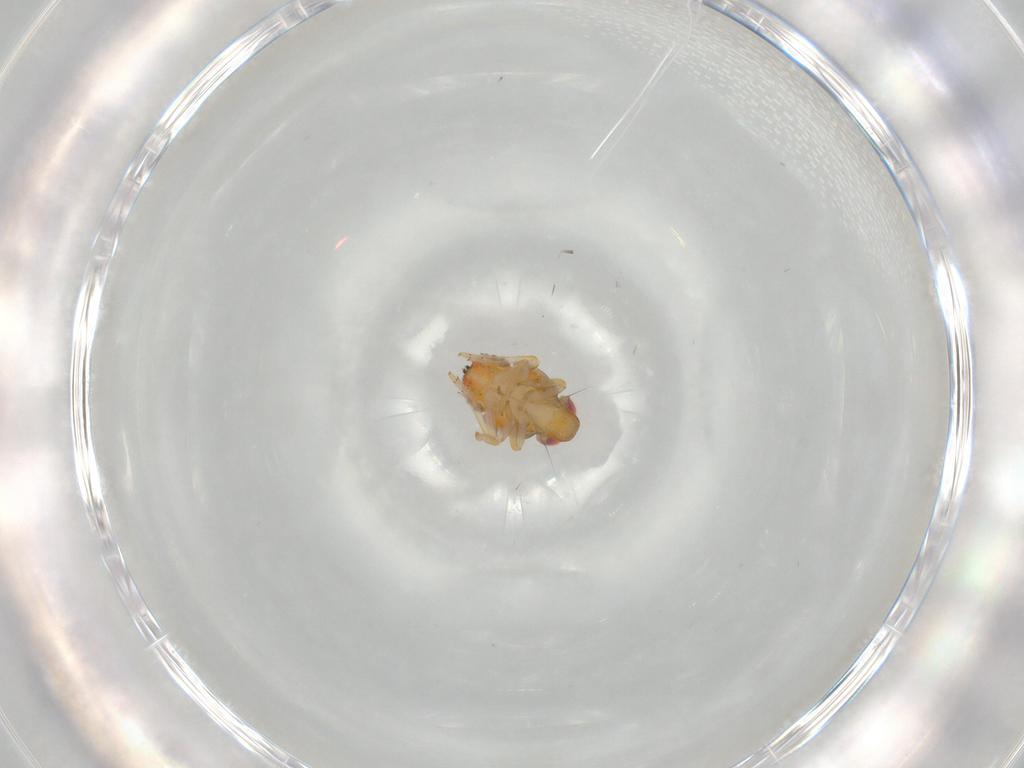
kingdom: Animalia
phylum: Arthropoda
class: Insecta
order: Hemiptera
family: Issidae
